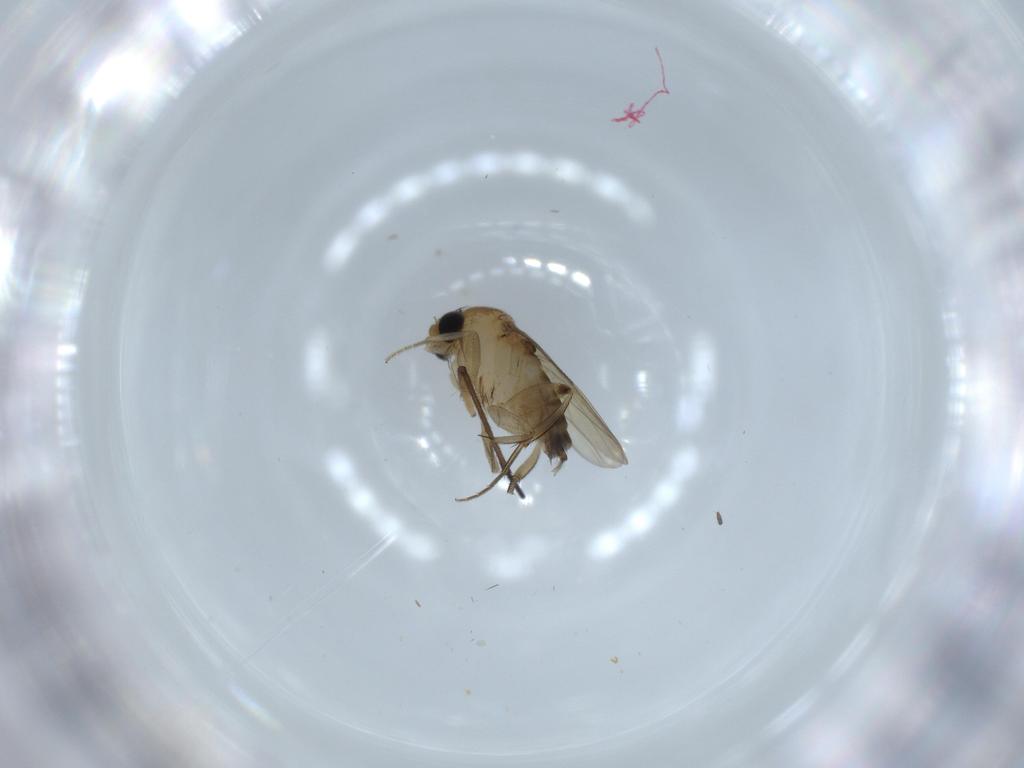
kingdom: Animalia
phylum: Arthropoda
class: Insecta
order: Diptera
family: Phoridae
